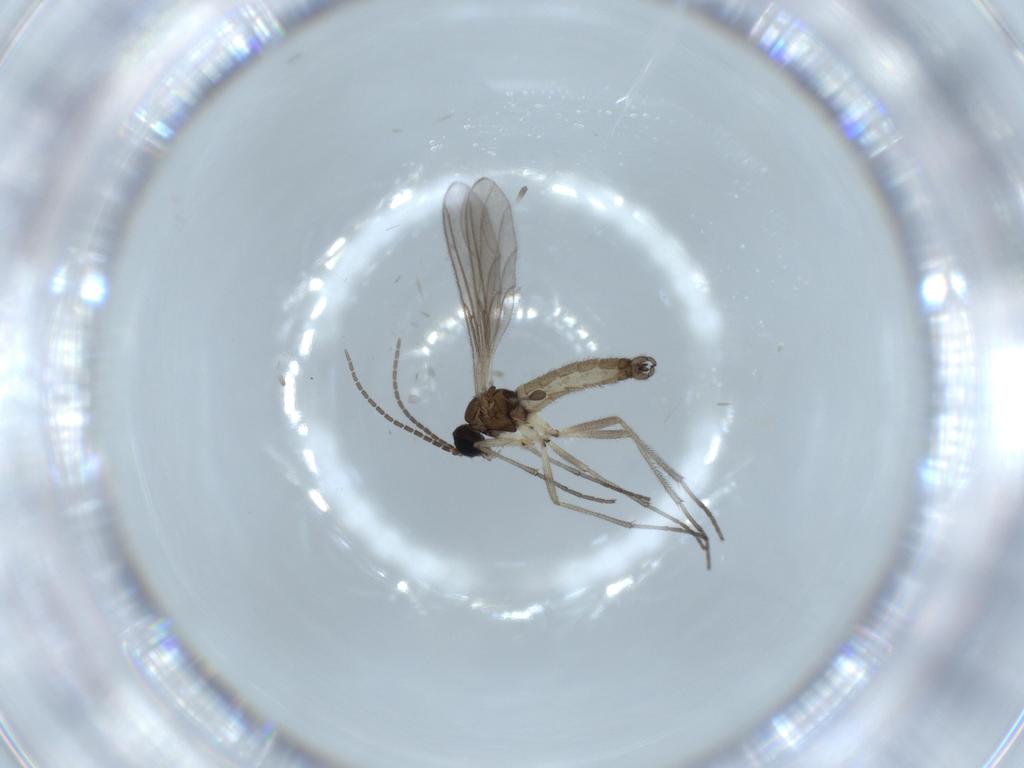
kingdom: Animalia
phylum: Arthropoda
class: Insecta
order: Diptera
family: Sciaridae
